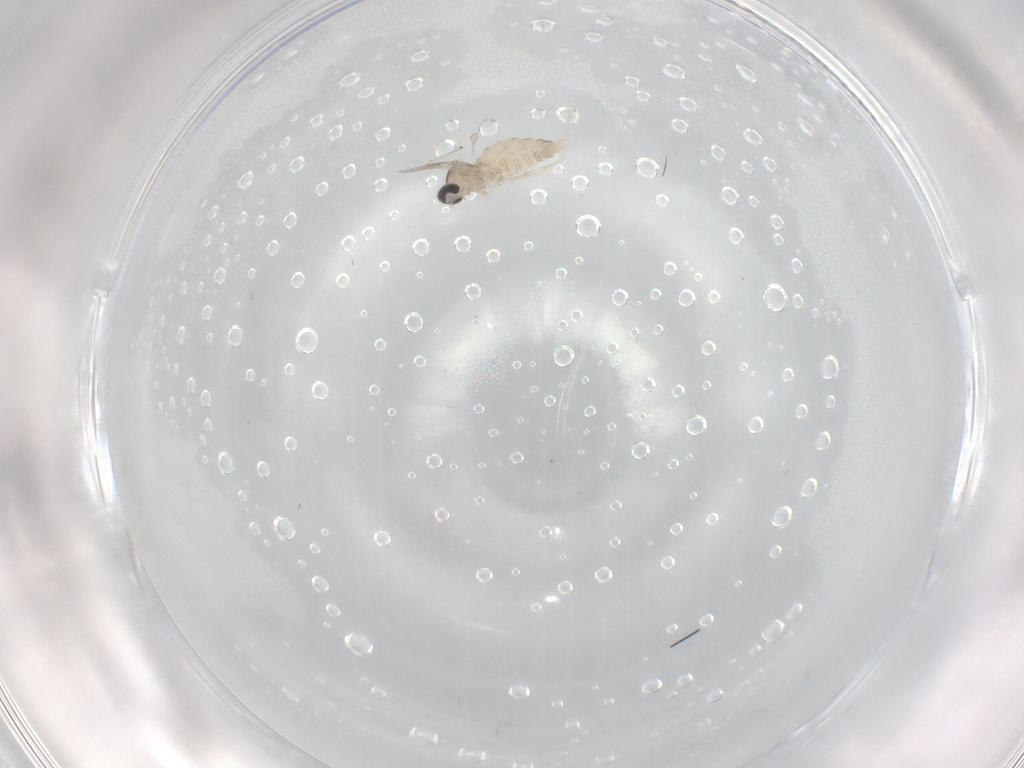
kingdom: Animalia
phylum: Arthropoda
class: Insecta
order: Diptera
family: Cecidomyiidae
